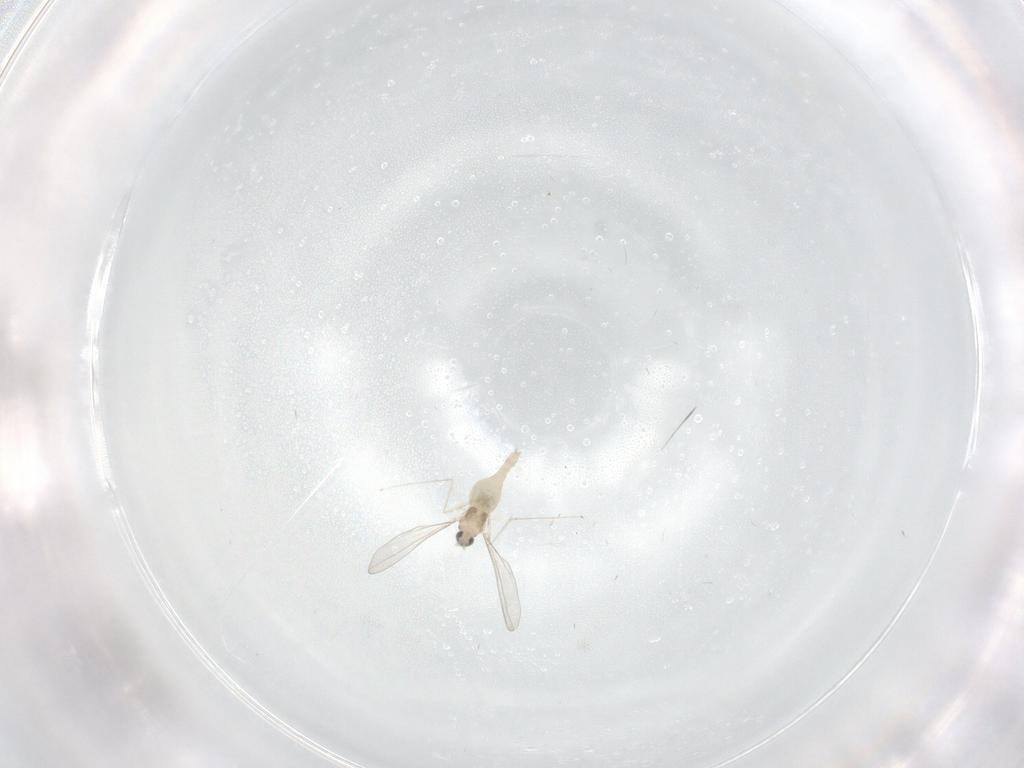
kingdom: Animalia
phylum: Arthropoda
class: Insecta
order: Diptera
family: Cecidomyiidae
